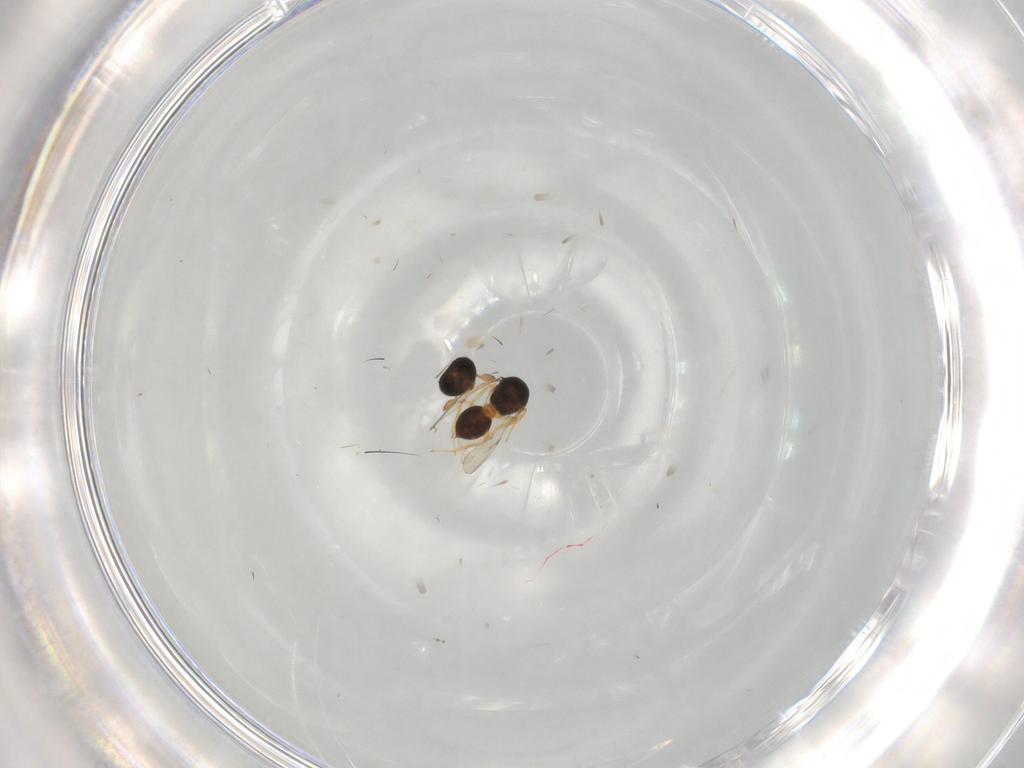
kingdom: Animalia
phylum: Arthropoda
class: Insecta
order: Hymenoptera
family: Scelionidae
